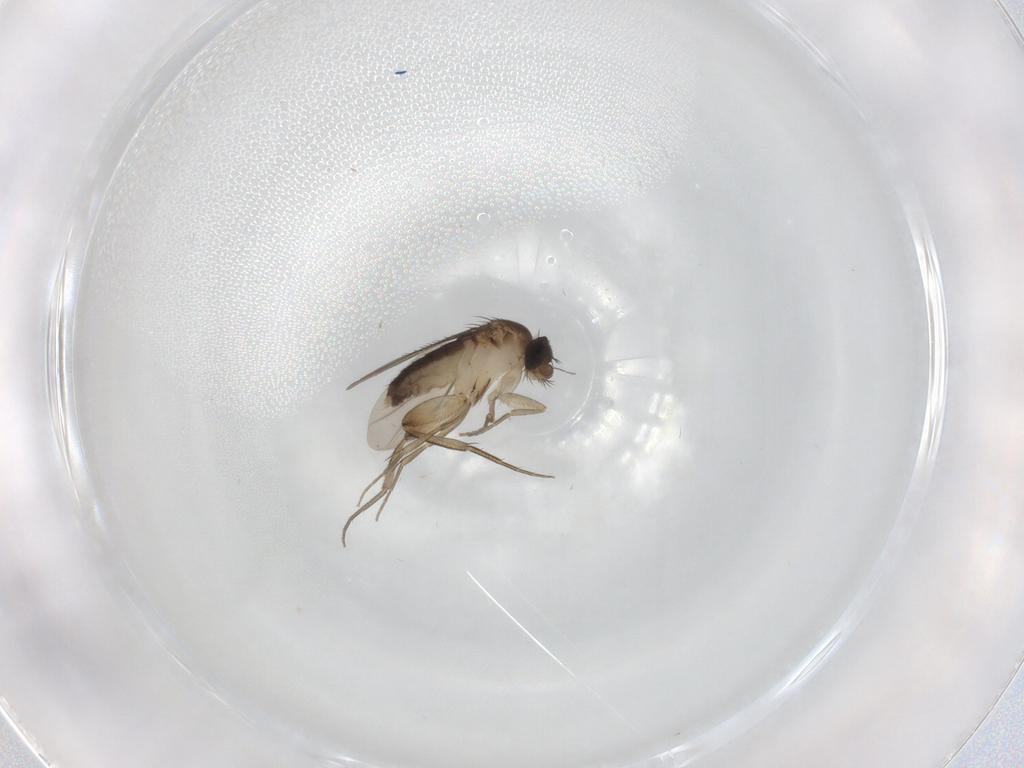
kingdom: Animalia
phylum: Arthropoda
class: Insecta
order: Diptera
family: Phoridae
